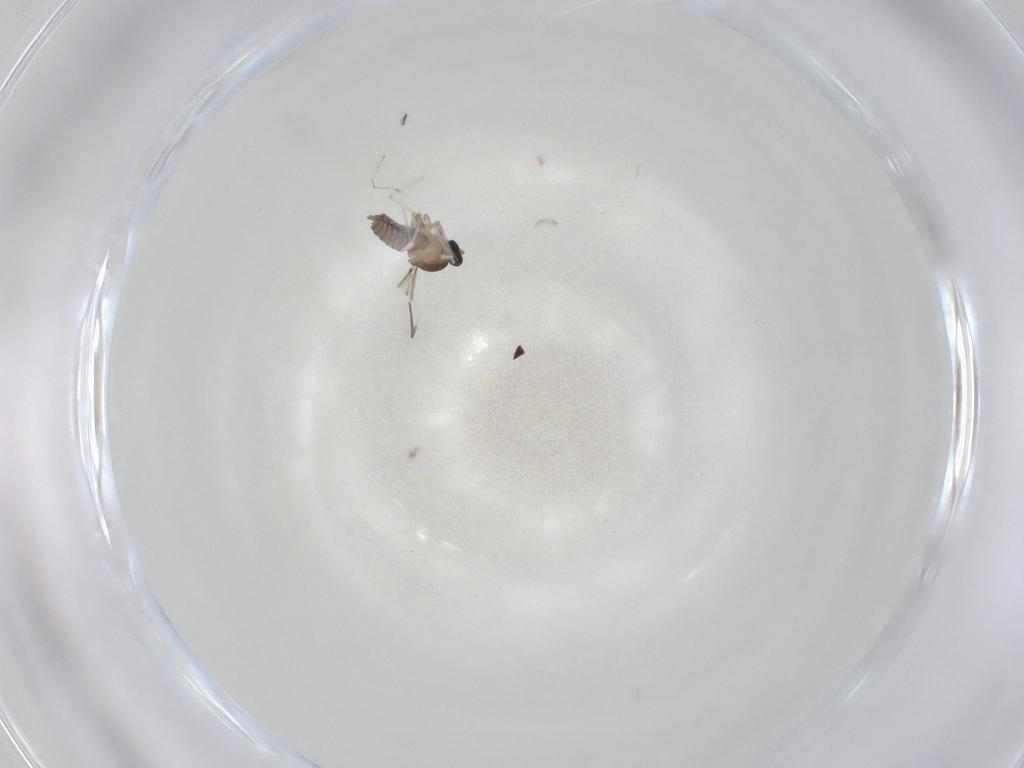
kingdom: Animalia
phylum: Arthropoda
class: Insecta
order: Diptera
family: Cecidomyiidae
